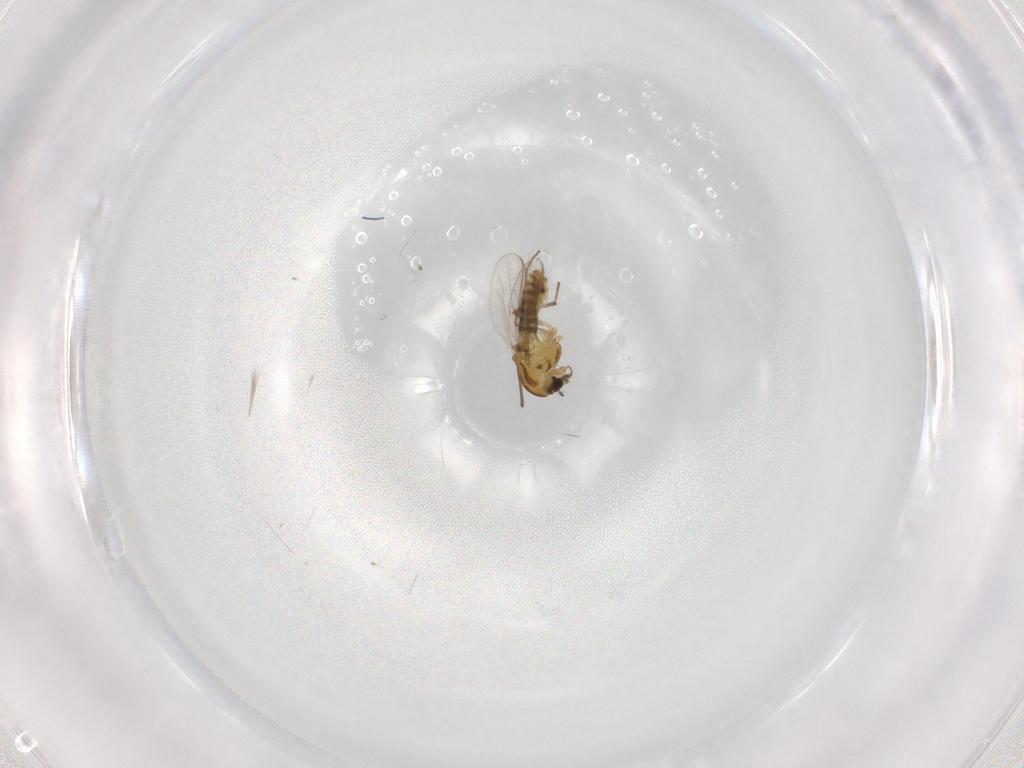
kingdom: Animalia
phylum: Arthropoda
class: Insecta
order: Diptera
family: Chironomidae
